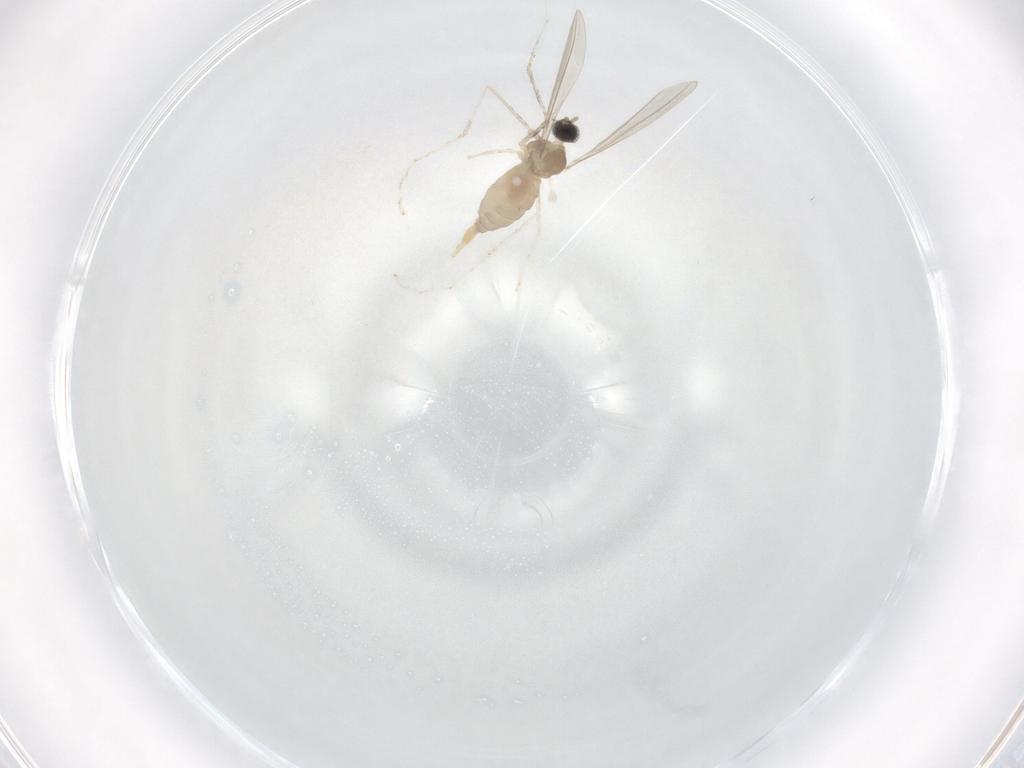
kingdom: Animalia
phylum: Arthropoda
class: Insecta
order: Diptera
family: Cecidomyiidae
